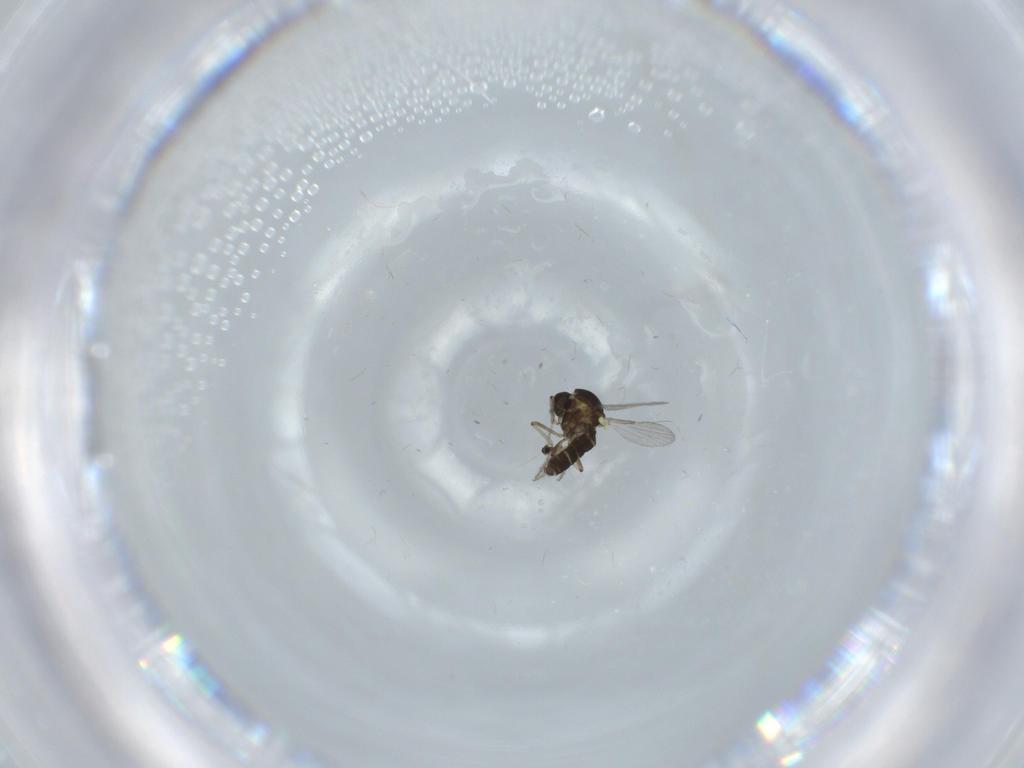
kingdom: Animalia
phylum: Arthropoda
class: Insecta
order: Diptera
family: Ceratopogonidae
